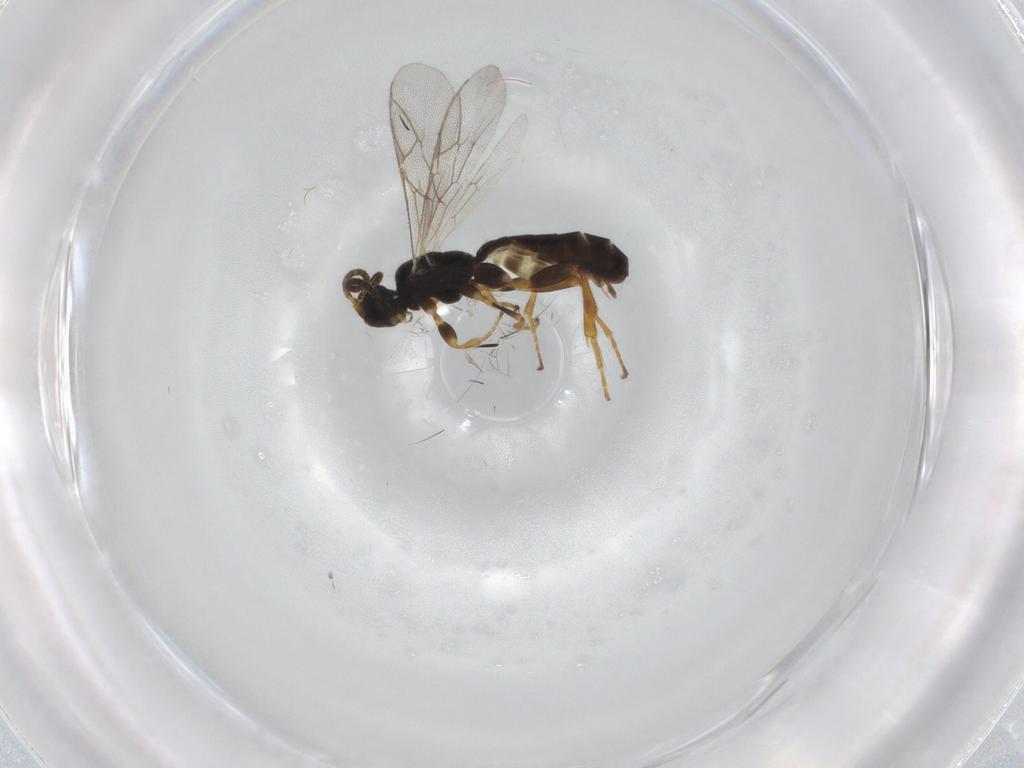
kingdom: Animalia
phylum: Arthropoda
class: Insecta
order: Hymenoptera
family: Ichneumonidae
